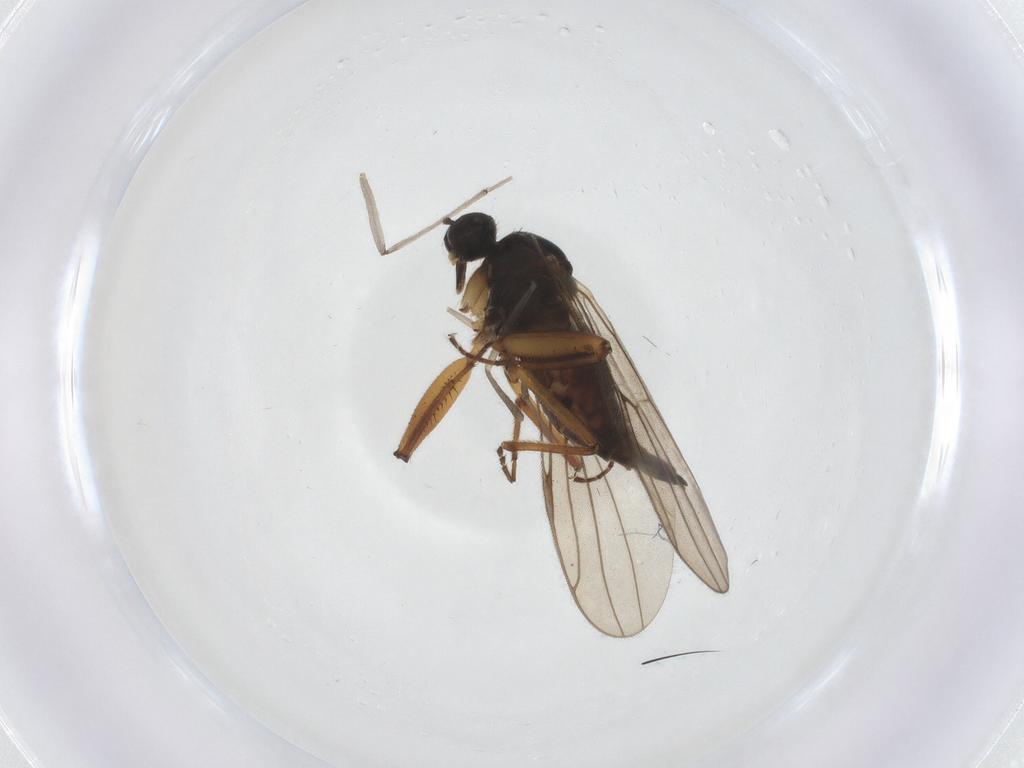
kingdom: Animalia
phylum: Arthropoda
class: Insecta
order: Diptera
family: Hybotidae
